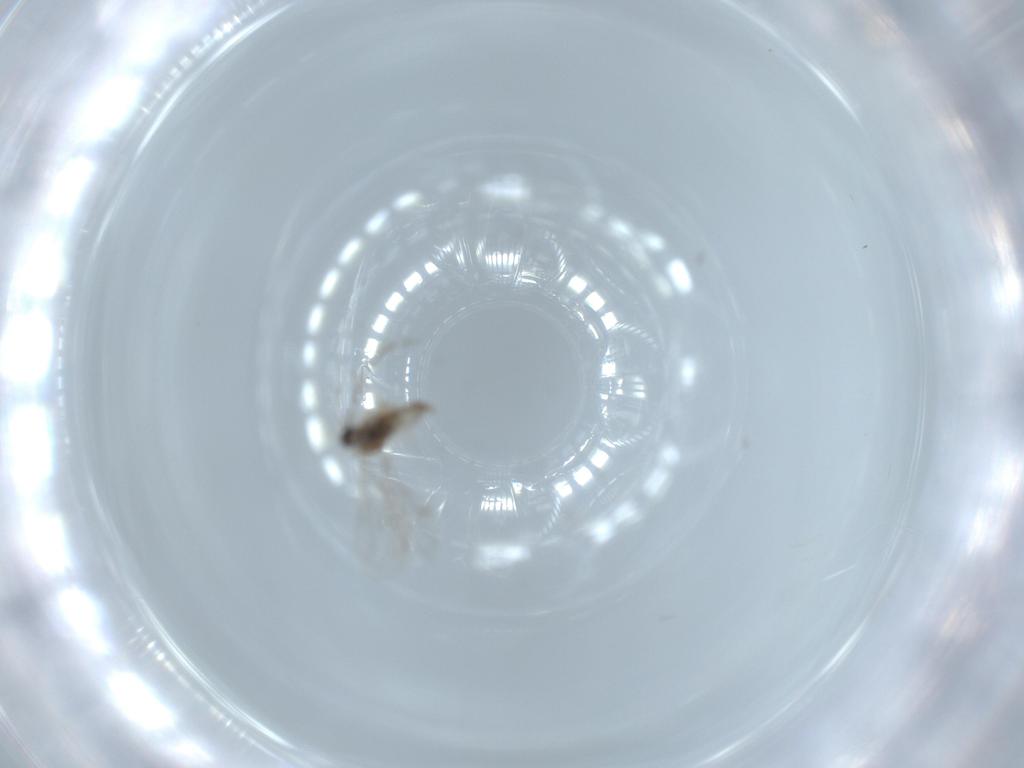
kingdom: Animalia
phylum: Arthropoda
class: Insecta
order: Diptera
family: Cecidomyiidae
